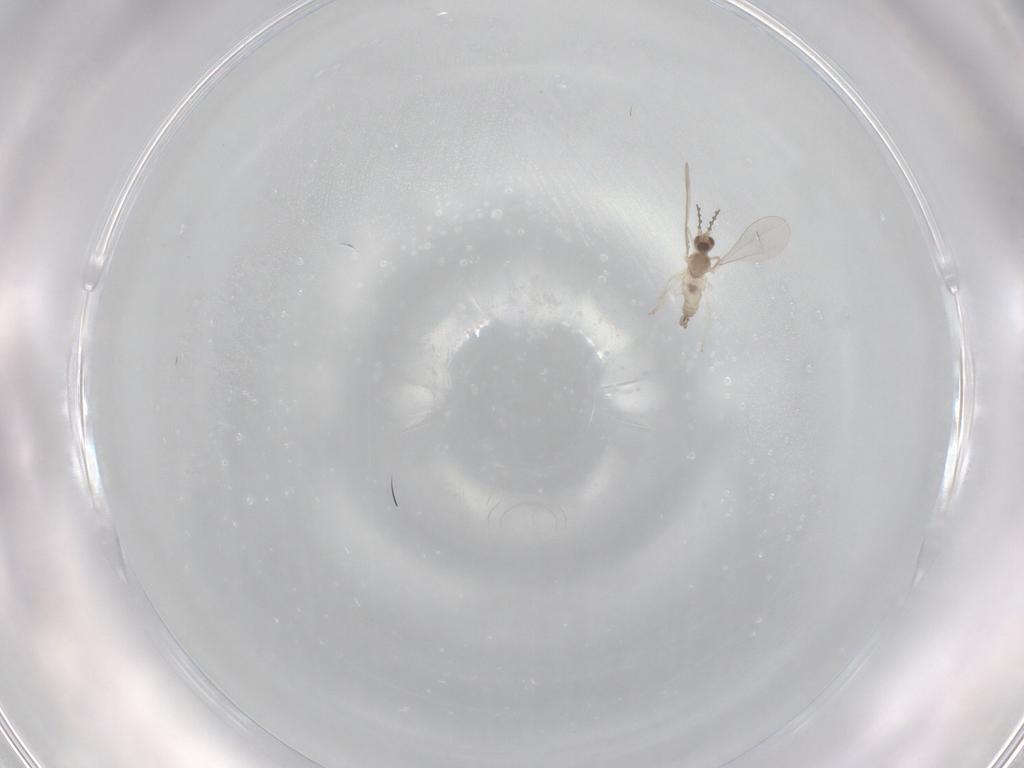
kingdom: Animalia
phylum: Arthropoda
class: Insecta
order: Diptera
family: Cecidomyiidae
